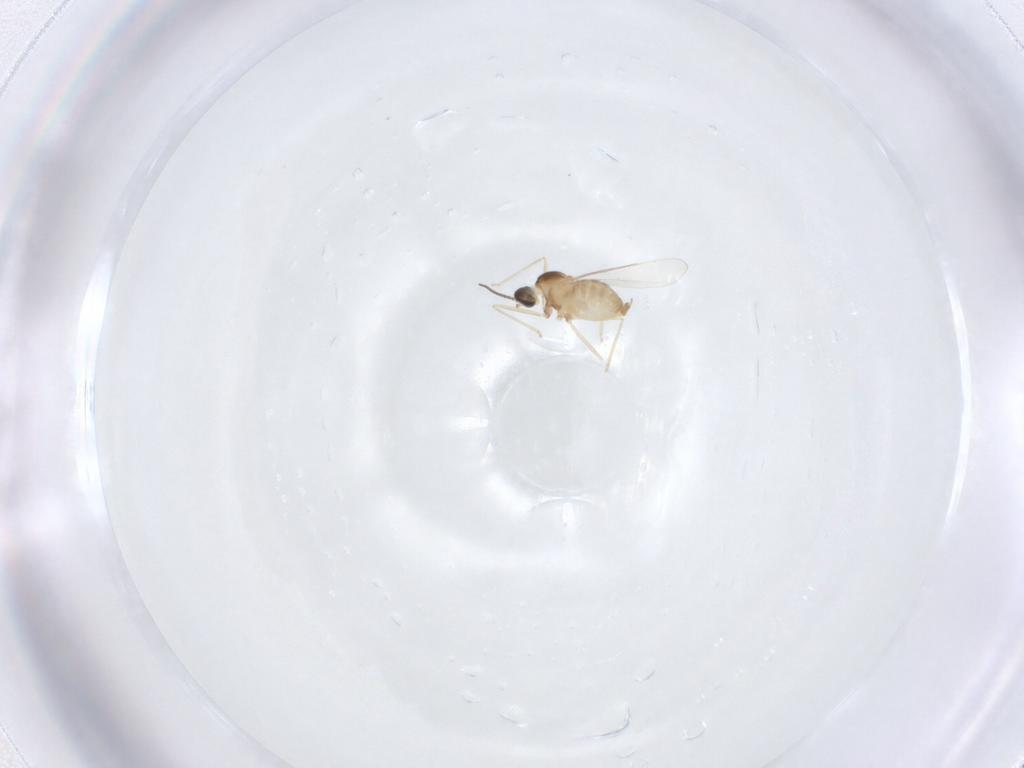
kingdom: Animalia
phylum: Arthropoda
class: Insecta
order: Diptera
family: Cecidomyiidae
